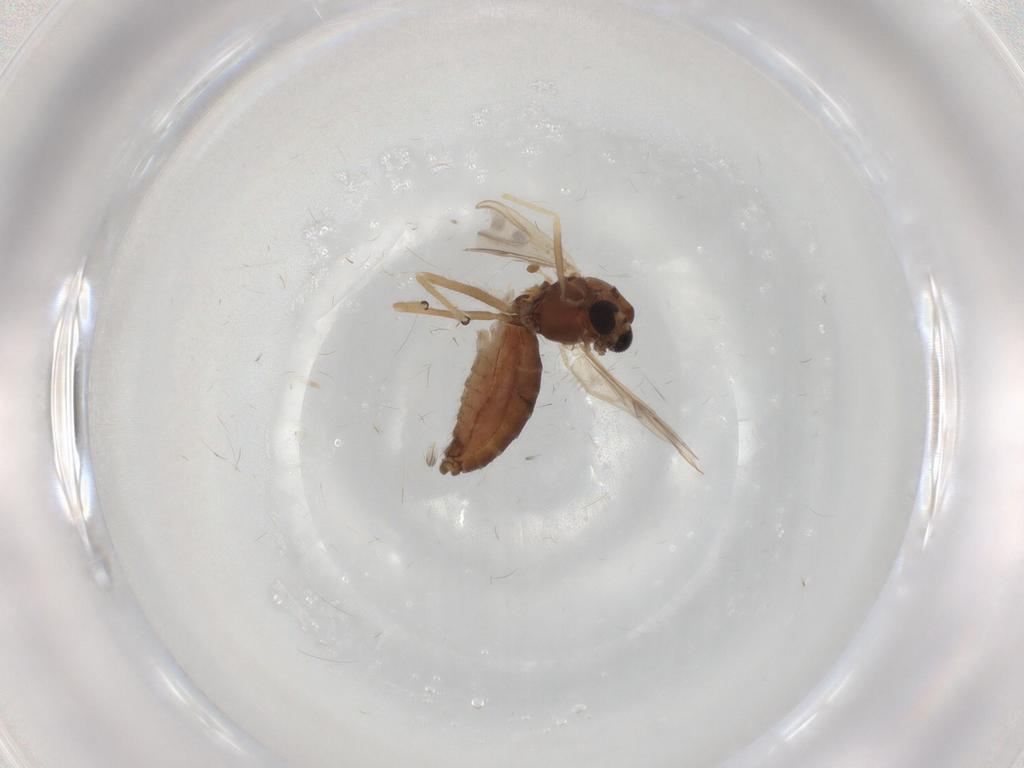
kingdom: Animalia
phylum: Arthropoda
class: Insecta
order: Diptera
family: Chironomidae
